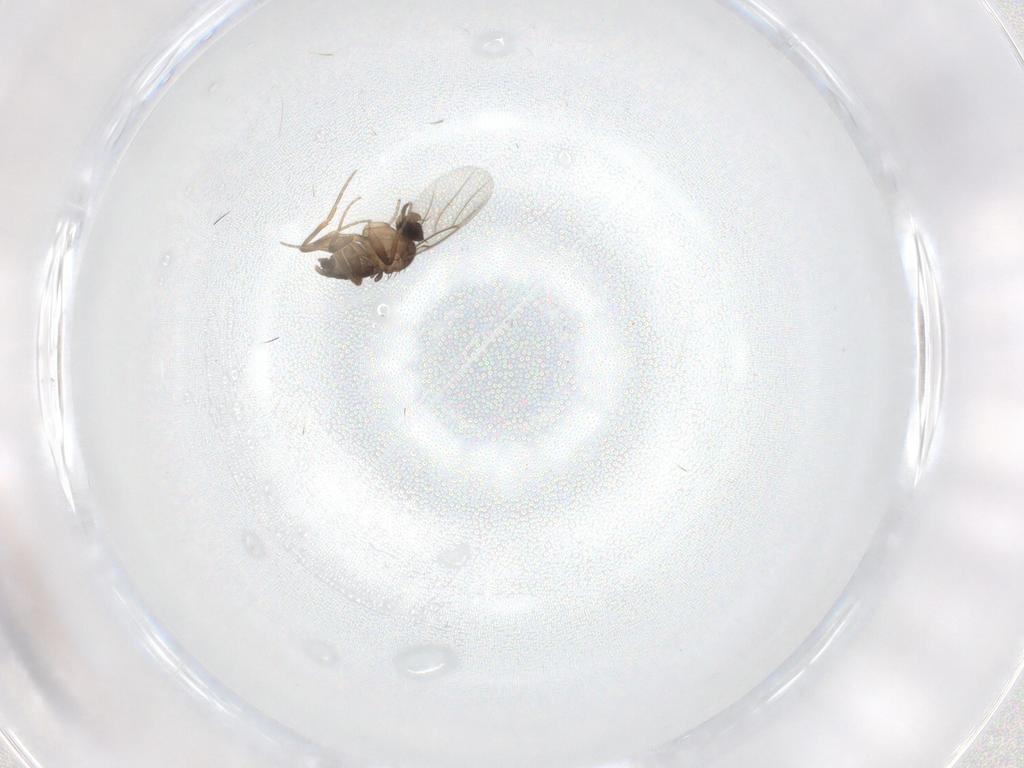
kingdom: Animalia
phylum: Arthropoda
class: Insecta
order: Diptera
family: Phoridae
